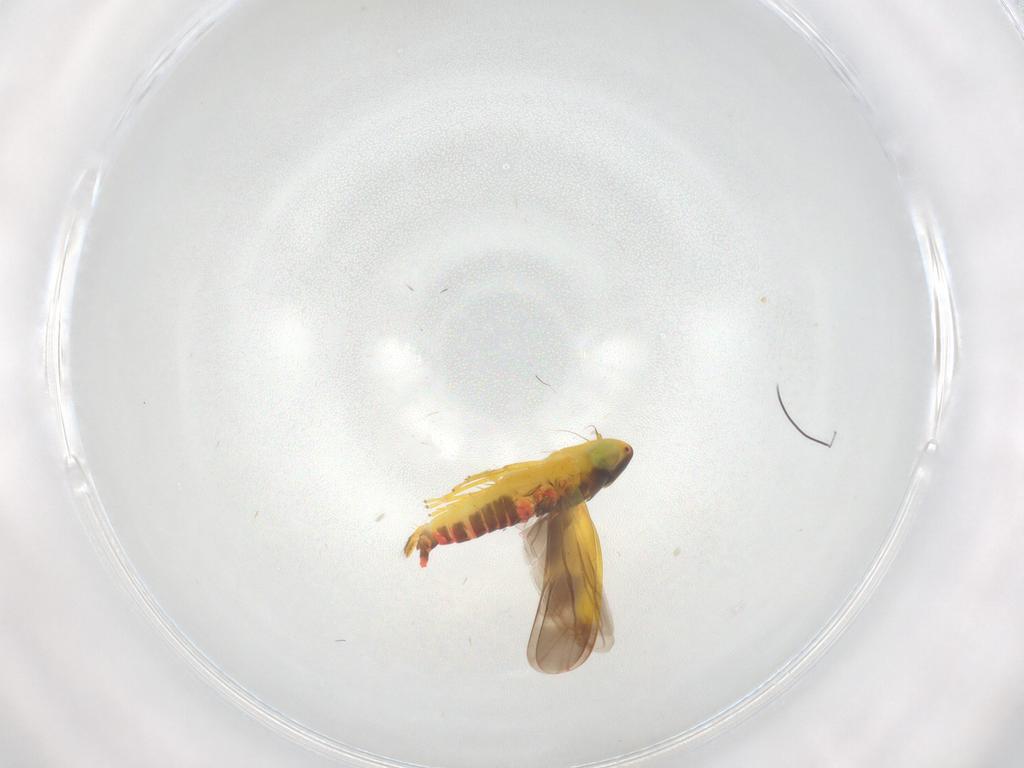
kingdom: Animalia
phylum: Arthropoda
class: Insecta
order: Hemiptera
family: Cicadellidae
